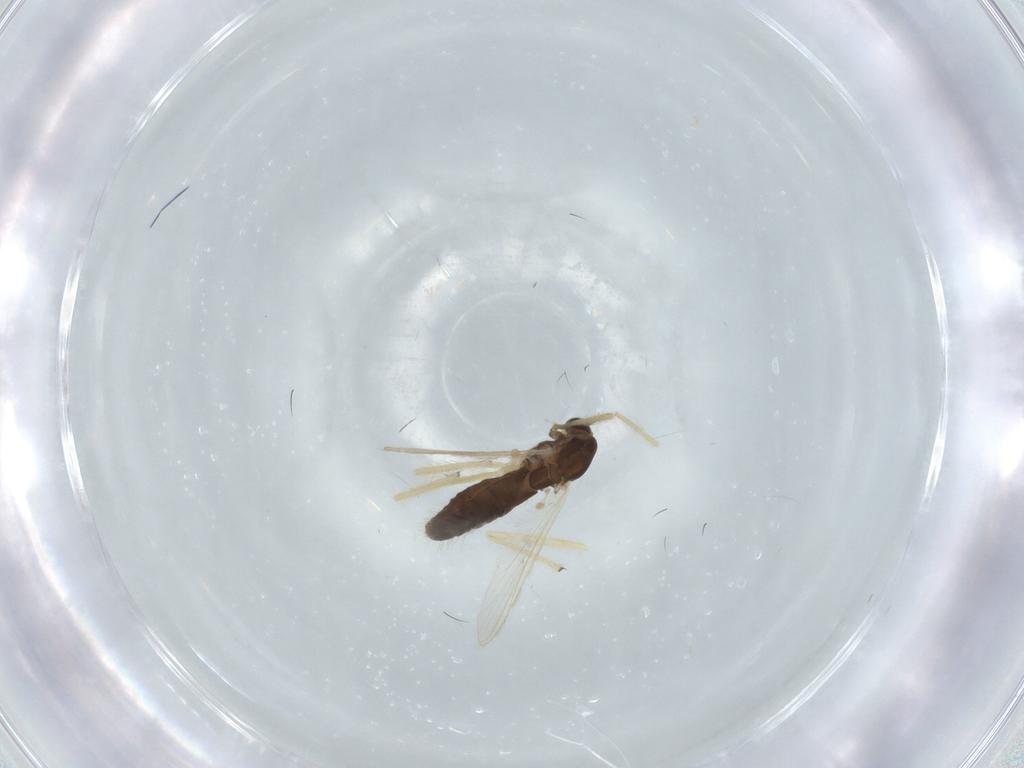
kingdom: Animalia
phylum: Arthropoda
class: Insecta
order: Diptera
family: Chironomidae
